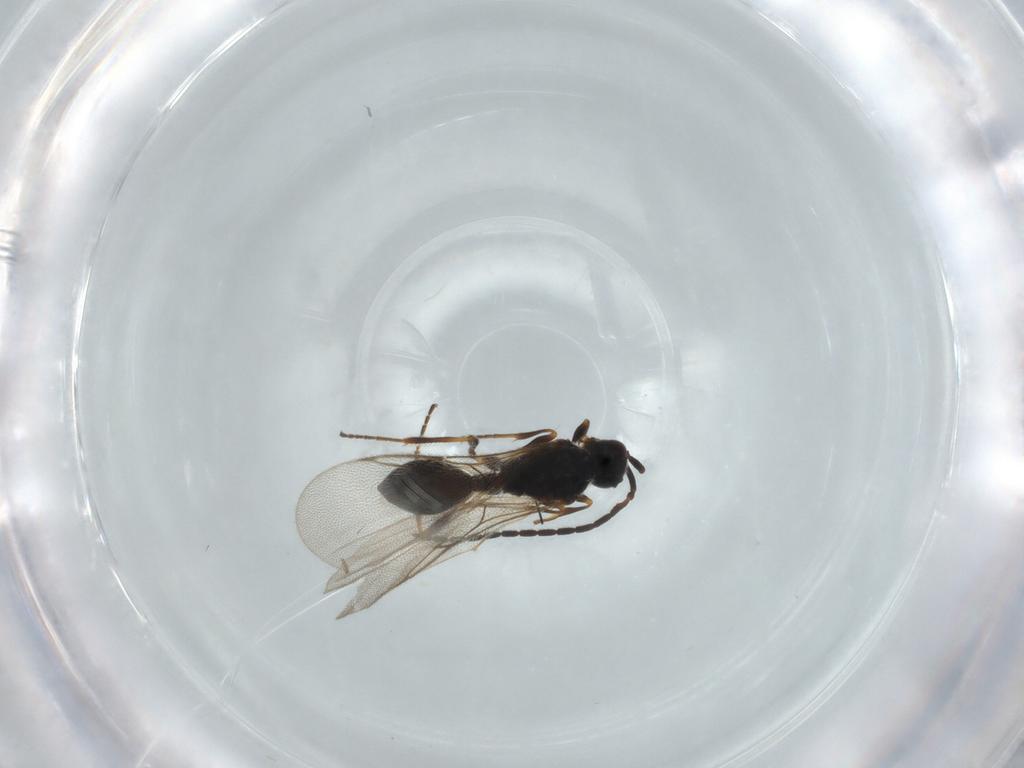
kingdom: Animalia
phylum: Arthropoda
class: Insecta
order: Hymenoptera
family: Diapriidae
